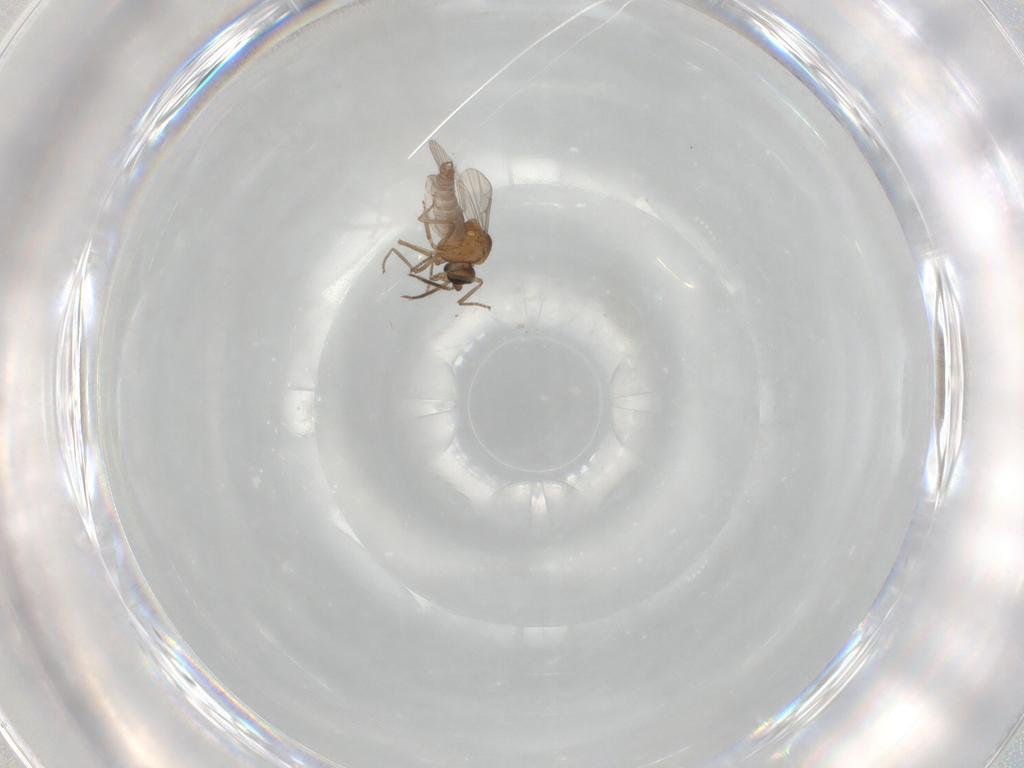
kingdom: Animalia
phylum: Arthropoda
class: Insecta
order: Diptera
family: Ceratopogonidae
